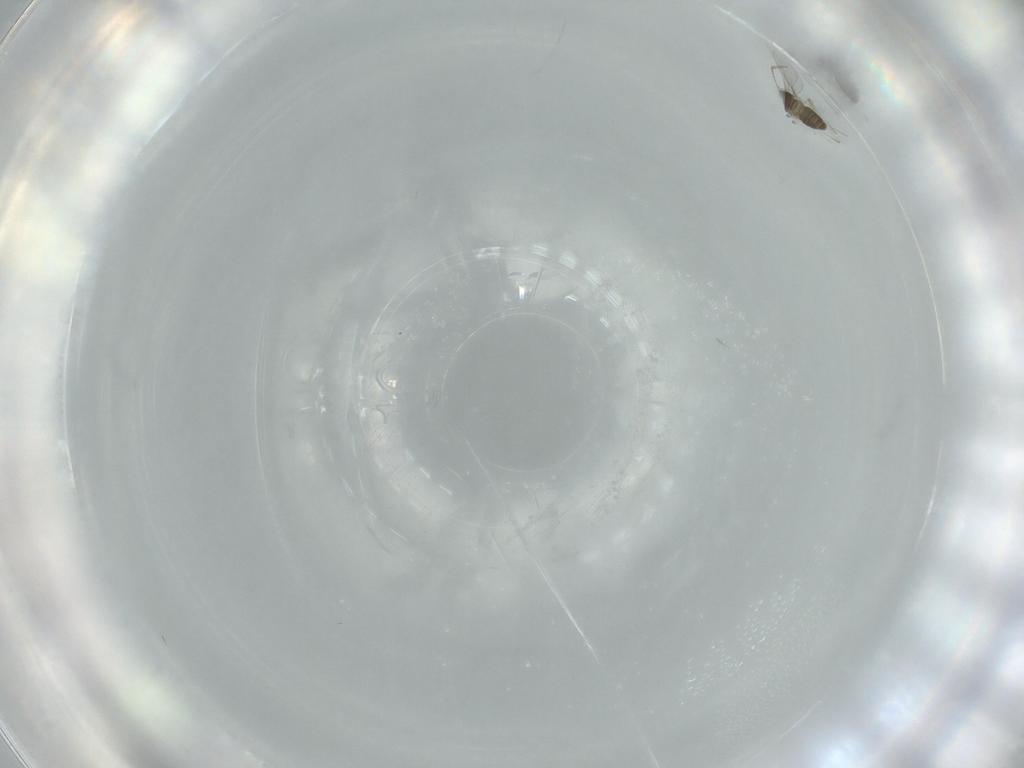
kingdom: Animalia
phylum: Arthropoda
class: Insecta
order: Diptera
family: Cecidomyiidae
